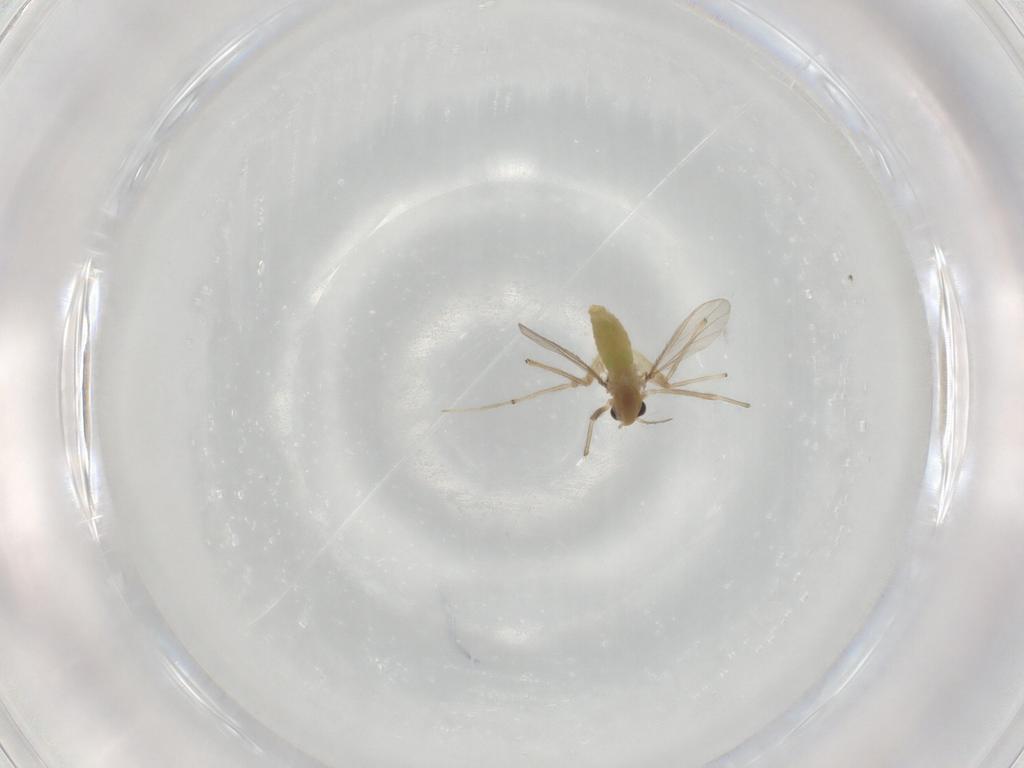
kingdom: Animalia
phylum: Arthropoda
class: Insecta
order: Diptera
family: Chironomidae
